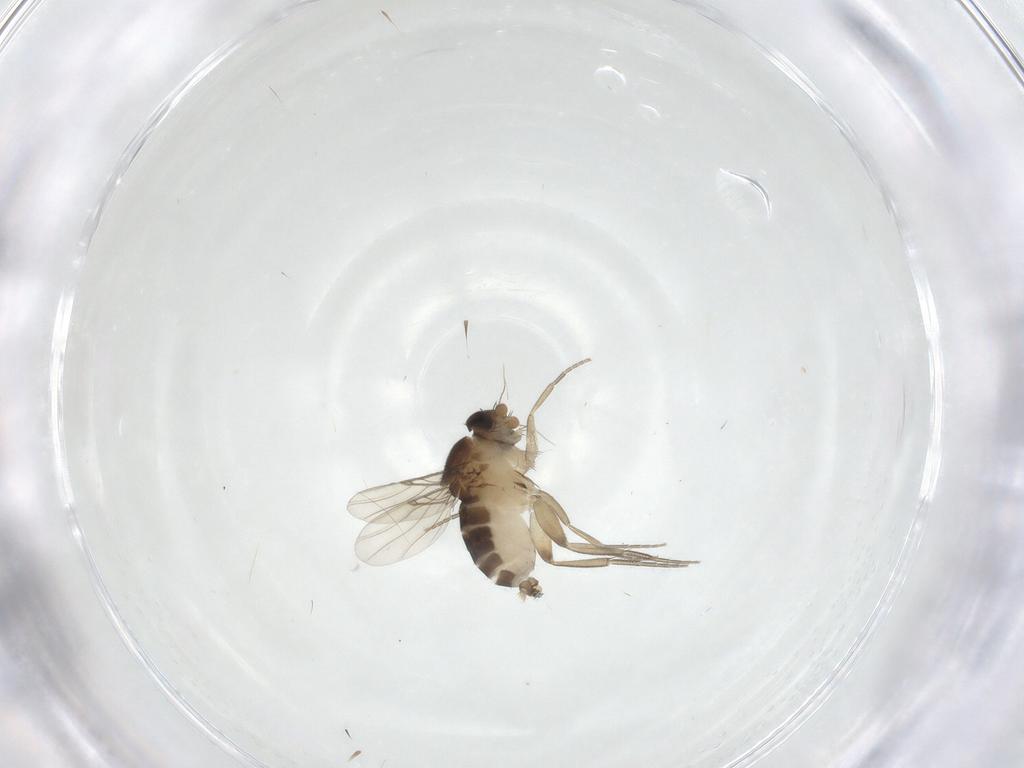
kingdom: Animalia
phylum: Arthropoda
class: Insecta
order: Diptera
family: Phoridae
